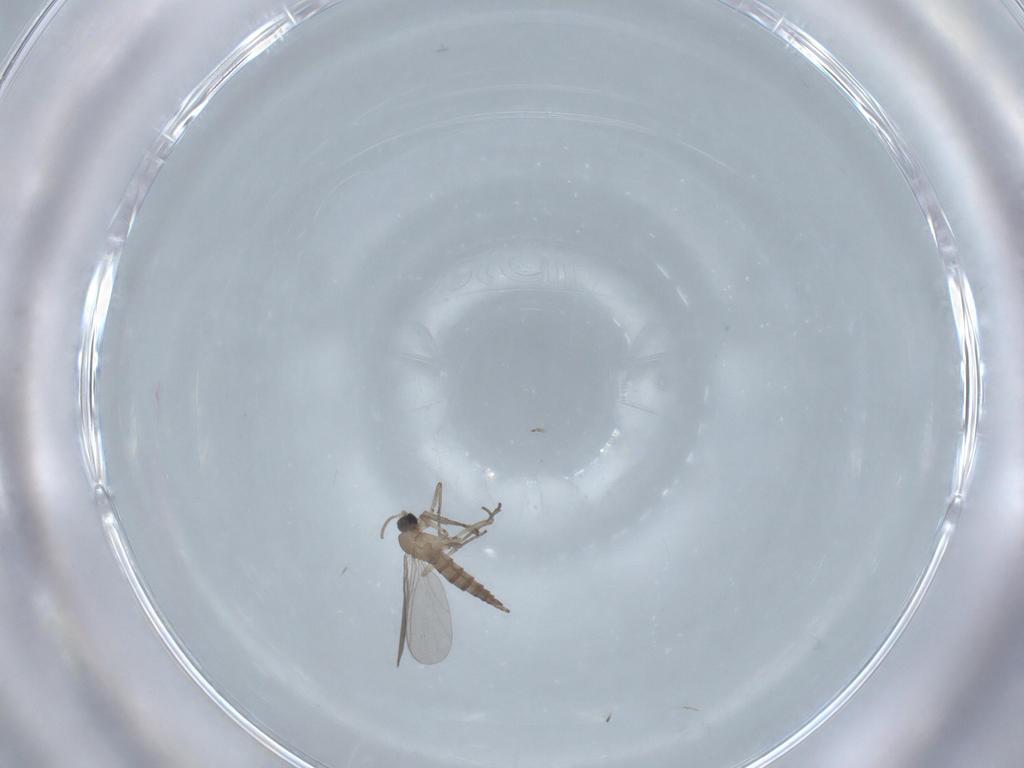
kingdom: Animalia
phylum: Arthropoda
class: Insecta
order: Diptera
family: Sciaridae
